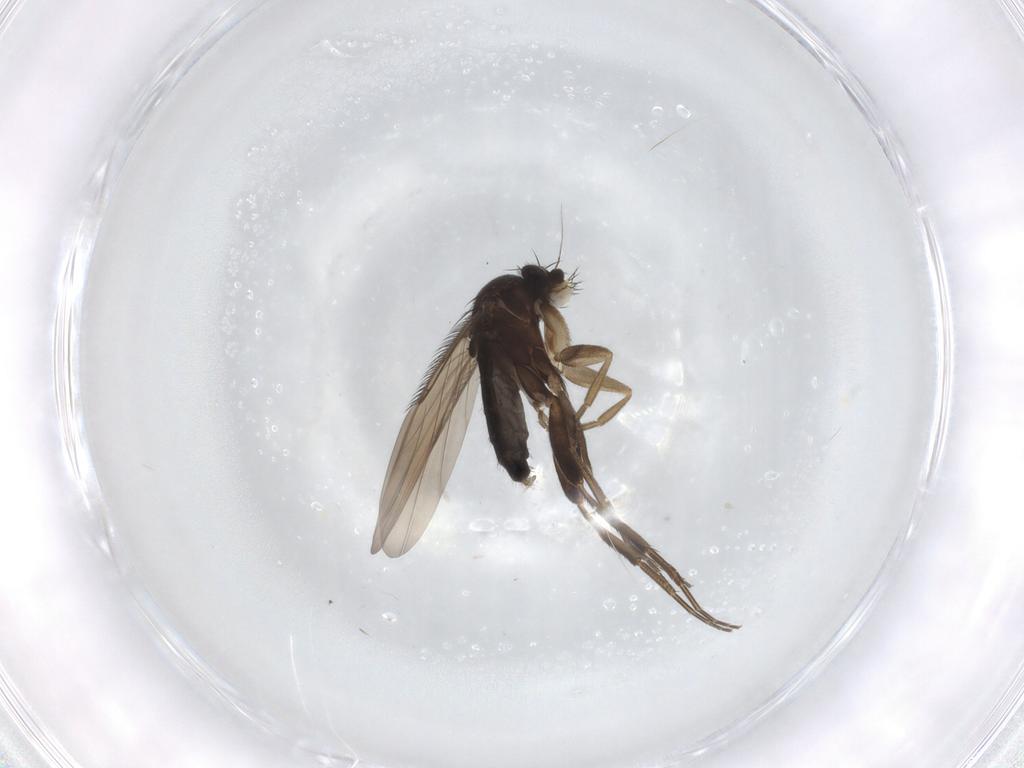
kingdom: Animalia
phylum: Arthropoda
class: Insecta
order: Diptera
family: Phoridae
